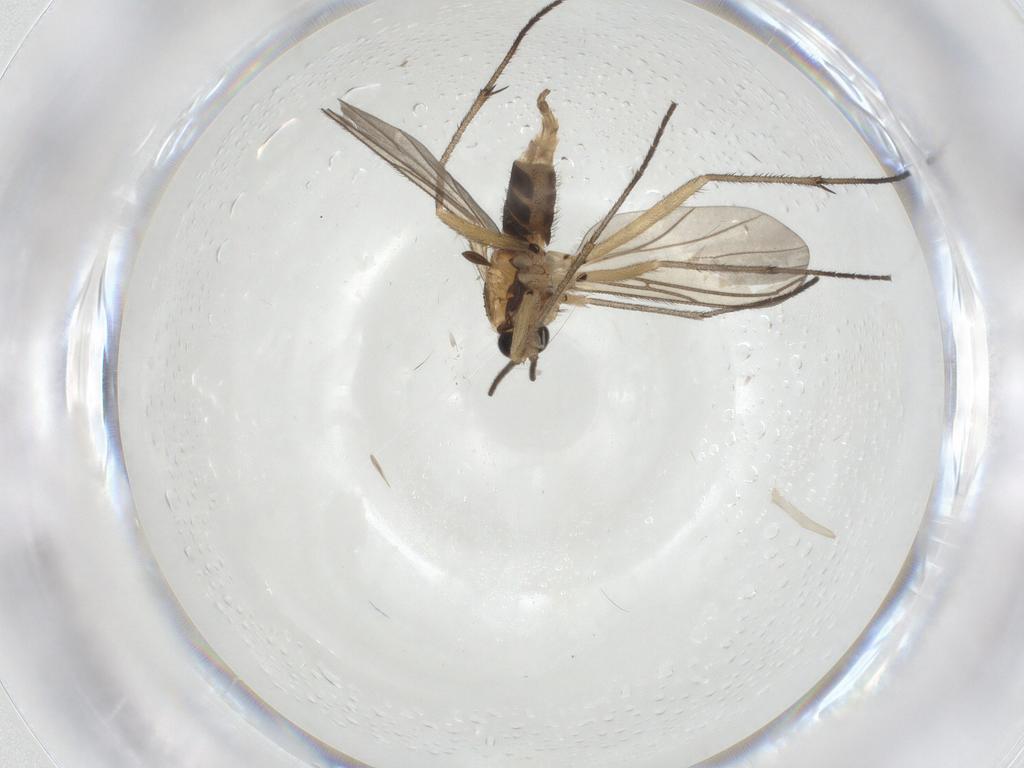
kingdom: Animalia
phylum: Arthropoda
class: Insecta
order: Diptera
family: Sciaridae
